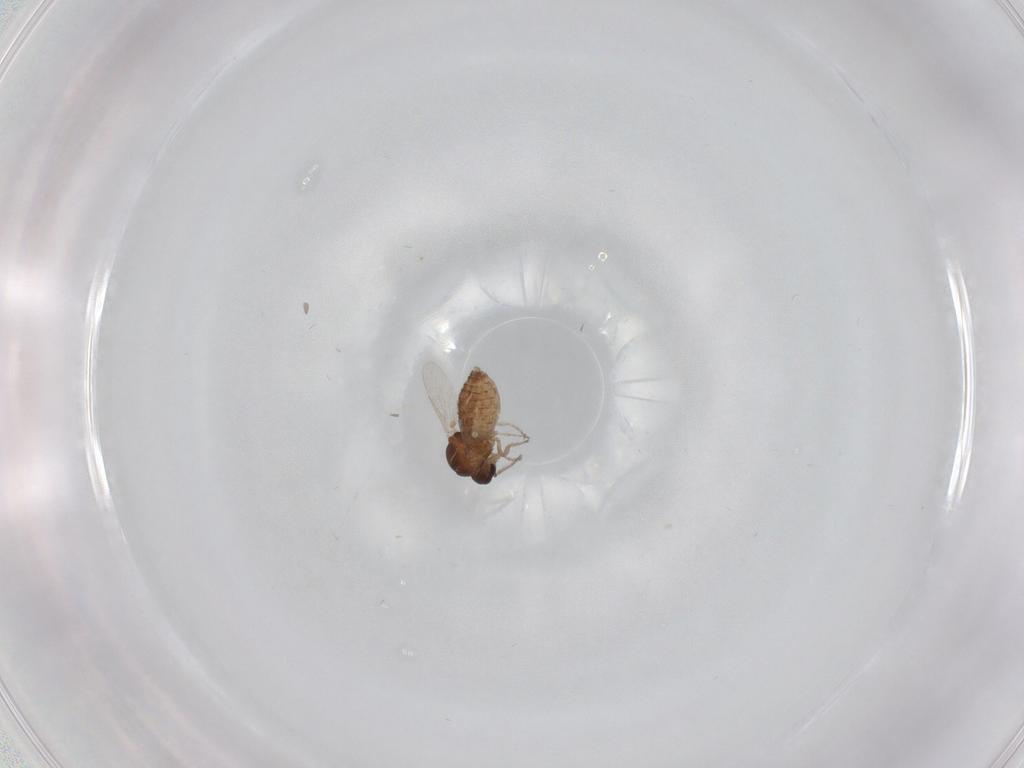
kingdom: Animalia
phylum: Arthropoda
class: Insecta
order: Diptera
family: Ceratopogonidae
